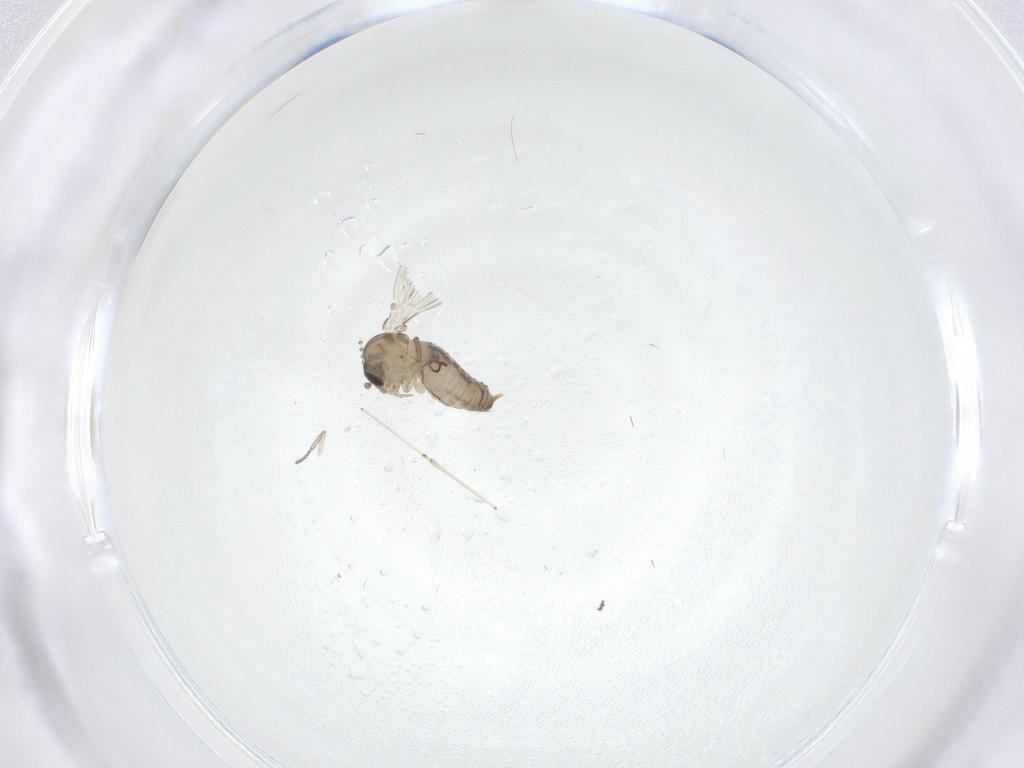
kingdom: Animalia
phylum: Arthropoda
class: Insecta
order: Diptera
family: Psychodidae
